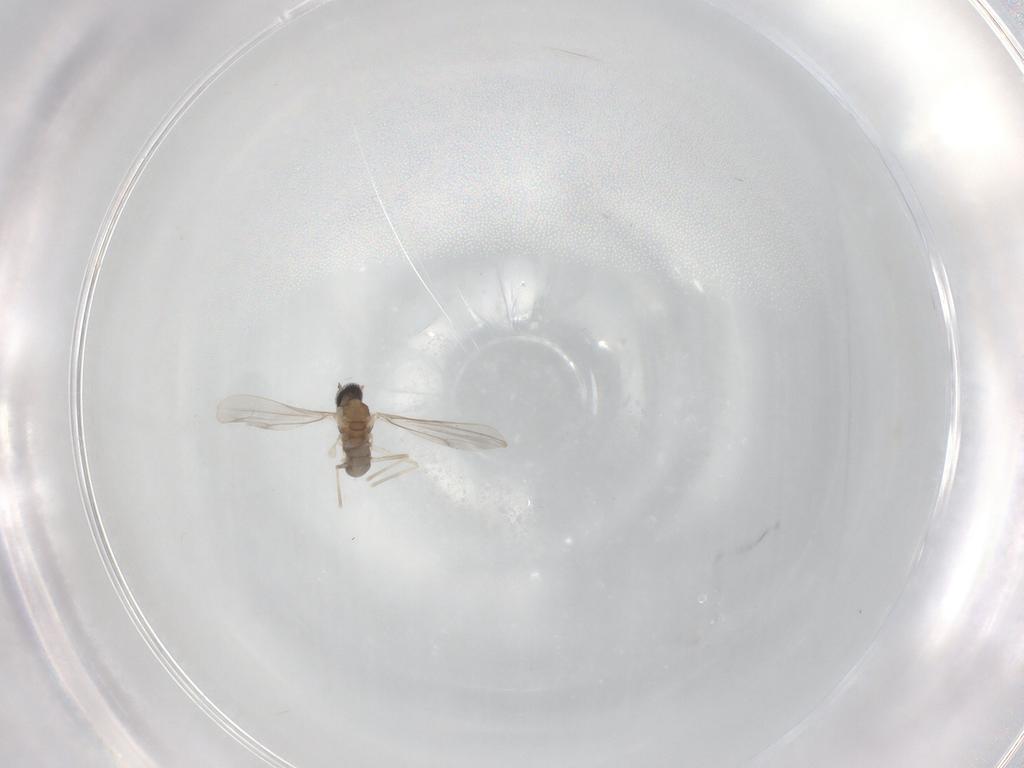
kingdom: Animalia
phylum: Arthropoda
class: Insecta
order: Diptera
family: Cecidomyiidae
